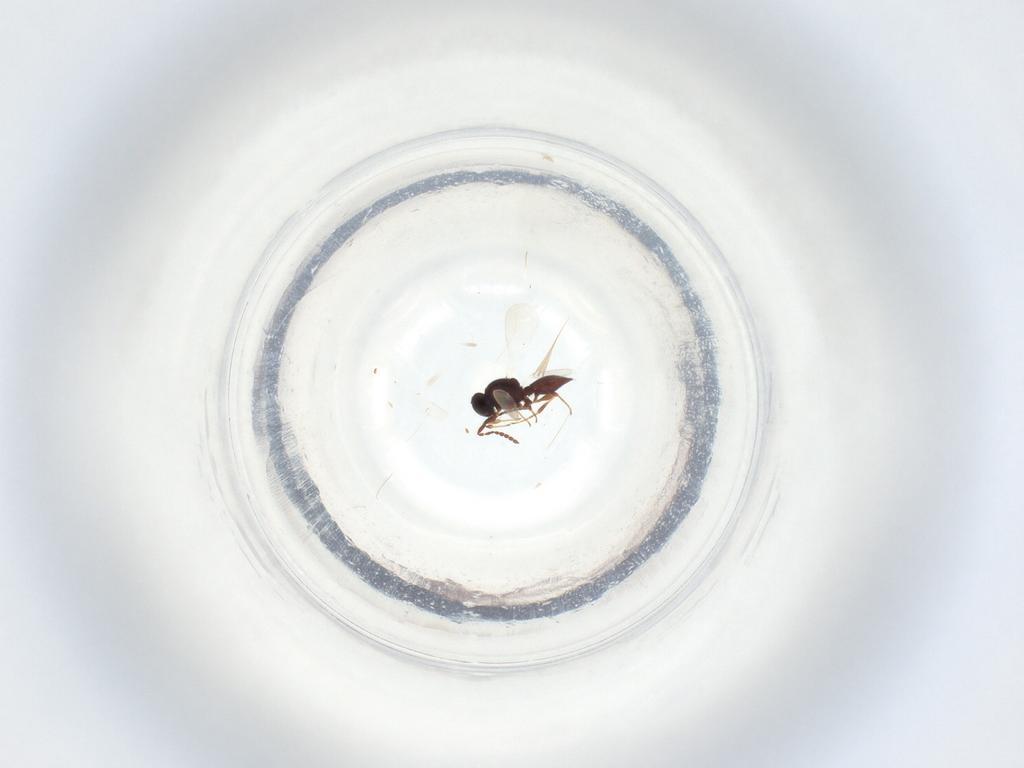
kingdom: Animalia
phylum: Arthropoda
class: Insecta
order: Hymenoptera
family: Platygastridae
